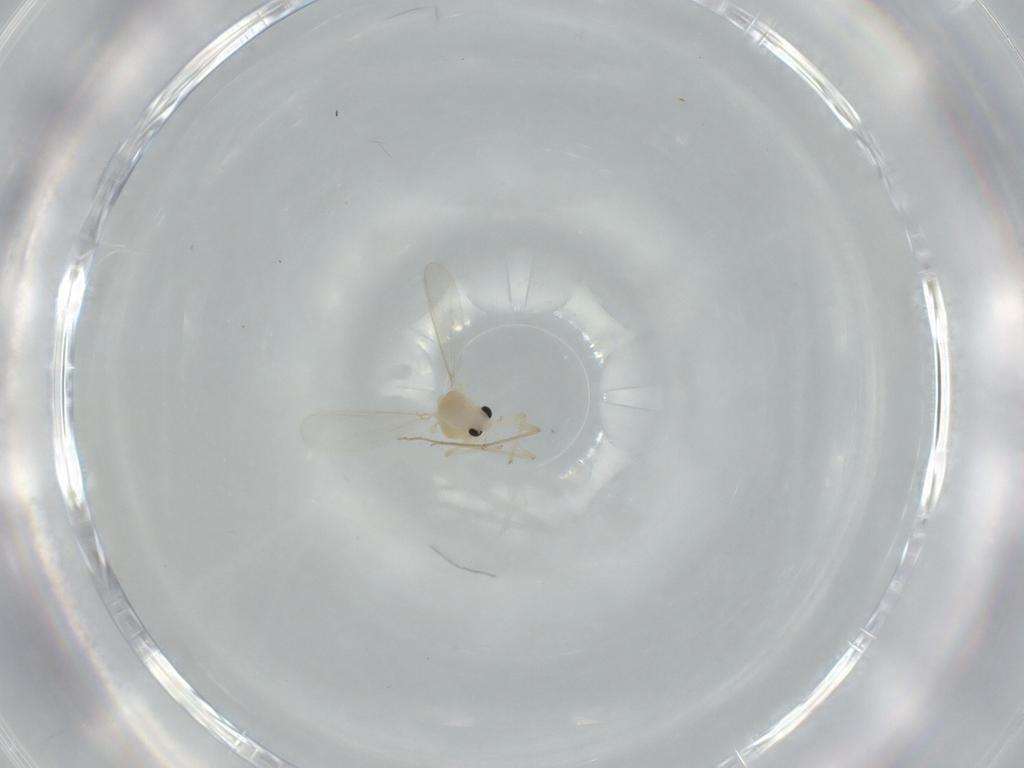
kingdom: Animalia
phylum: Arthropoda
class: Insecta
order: Diptera
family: Chironomidae
